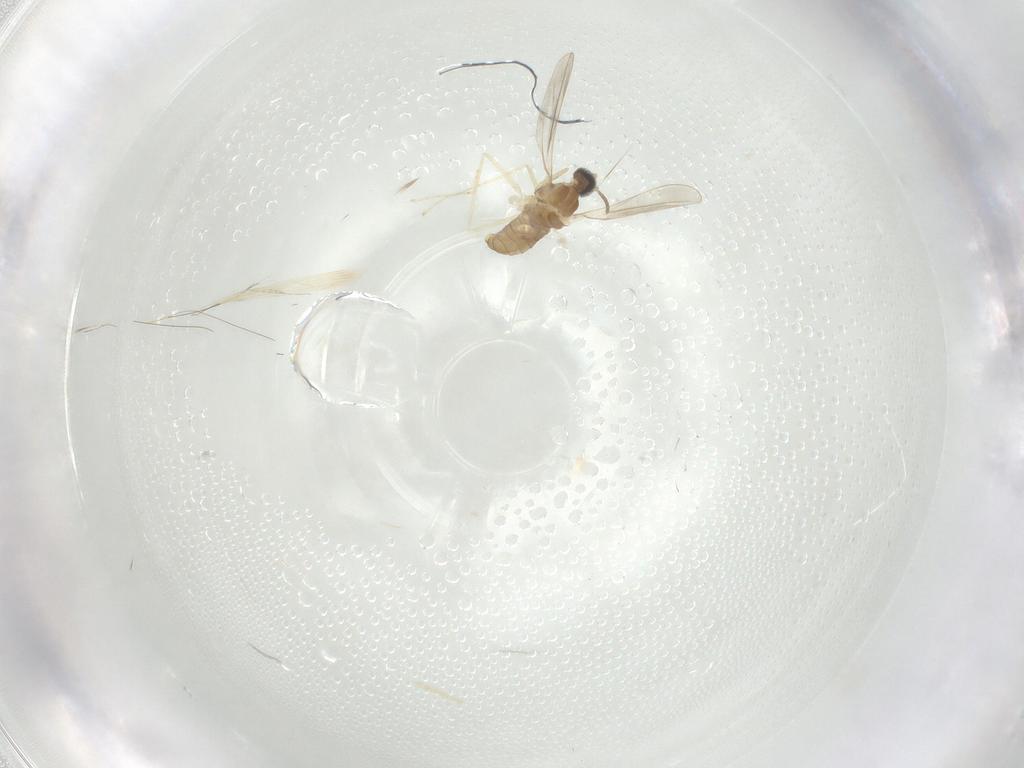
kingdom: Animalia
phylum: Arthropoda
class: Insecta
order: Diptera
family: Cecidomyiidae
